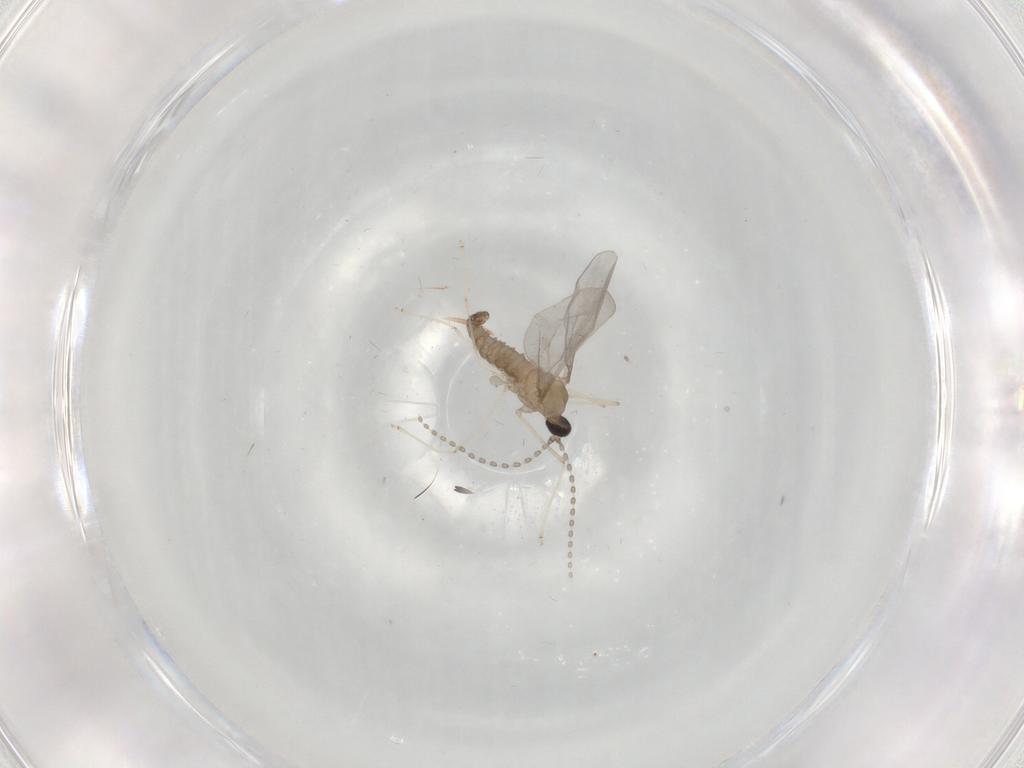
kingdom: Animalia
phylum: Arthropoda
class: Insecta
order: Diptera
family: Cecidomyiidae
